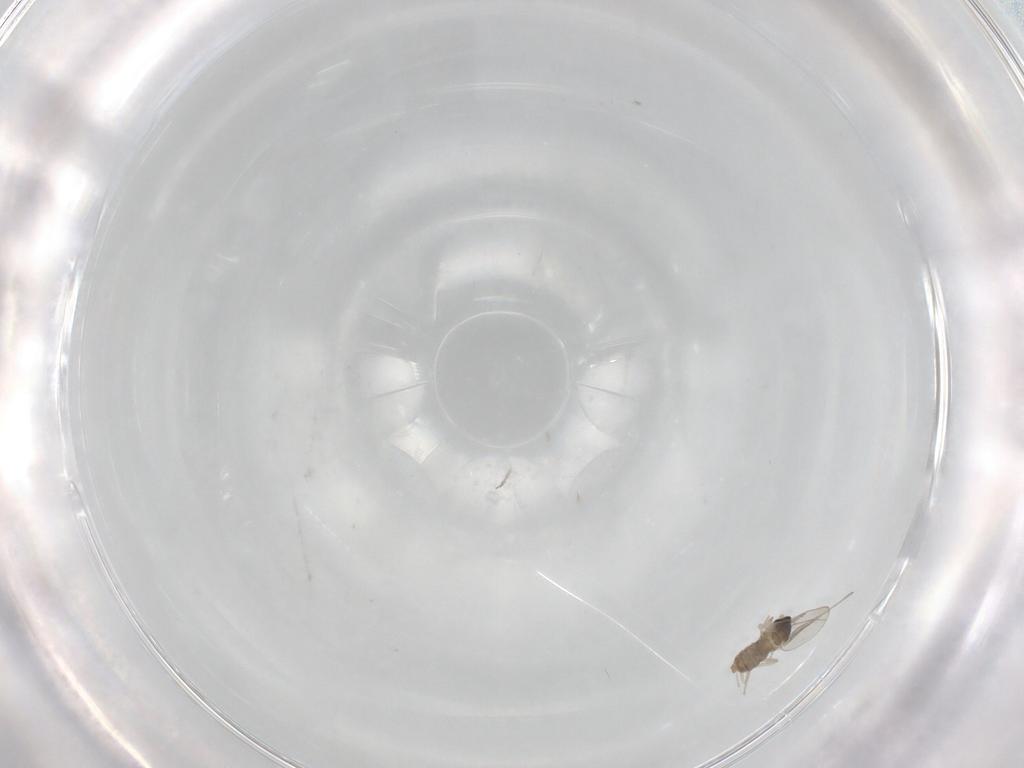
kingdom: Animalia
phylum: Arthropoda
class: Insecta
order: Diptera
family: Cecidomyiidae
